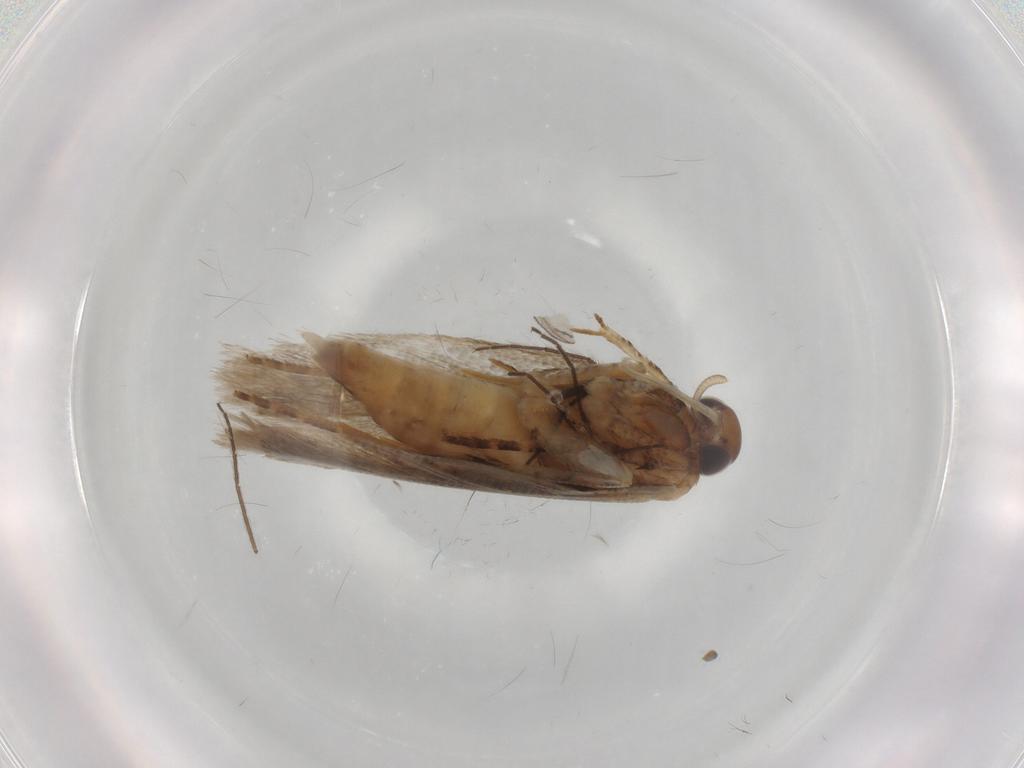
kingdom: Animalia
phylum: Arthropoda
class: Insecta
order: Lepidoptera
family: Gelechiidae
